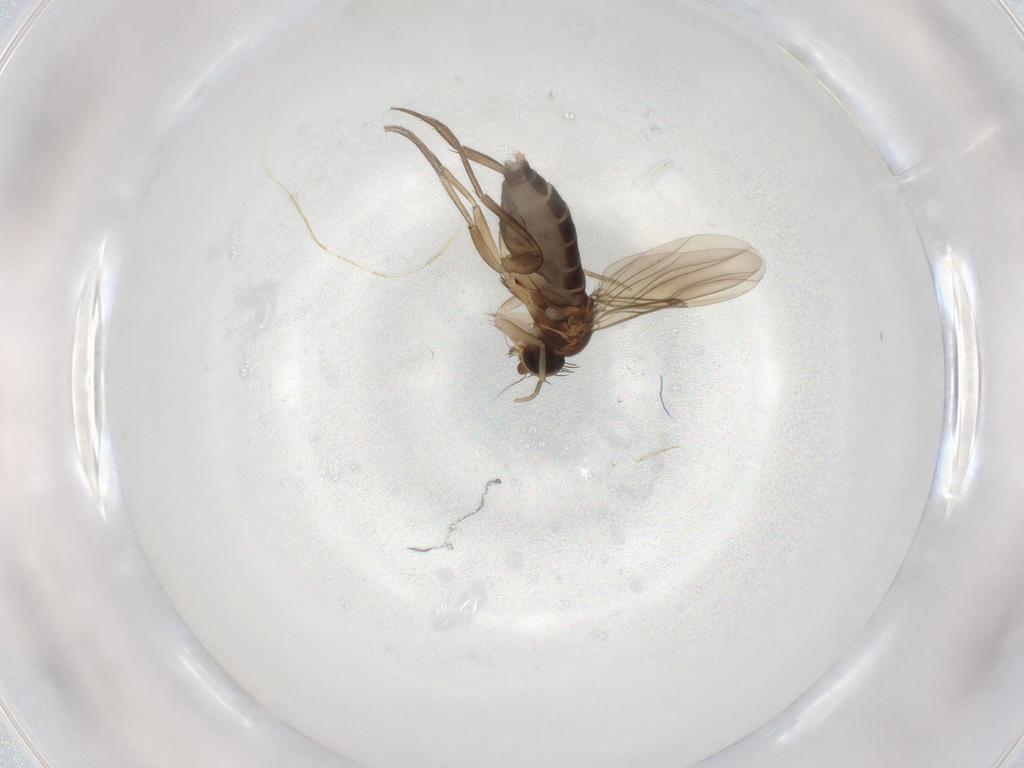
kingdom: Animalia
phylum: Arthropoda
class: Insecta
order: Diptera
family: Phoridae
